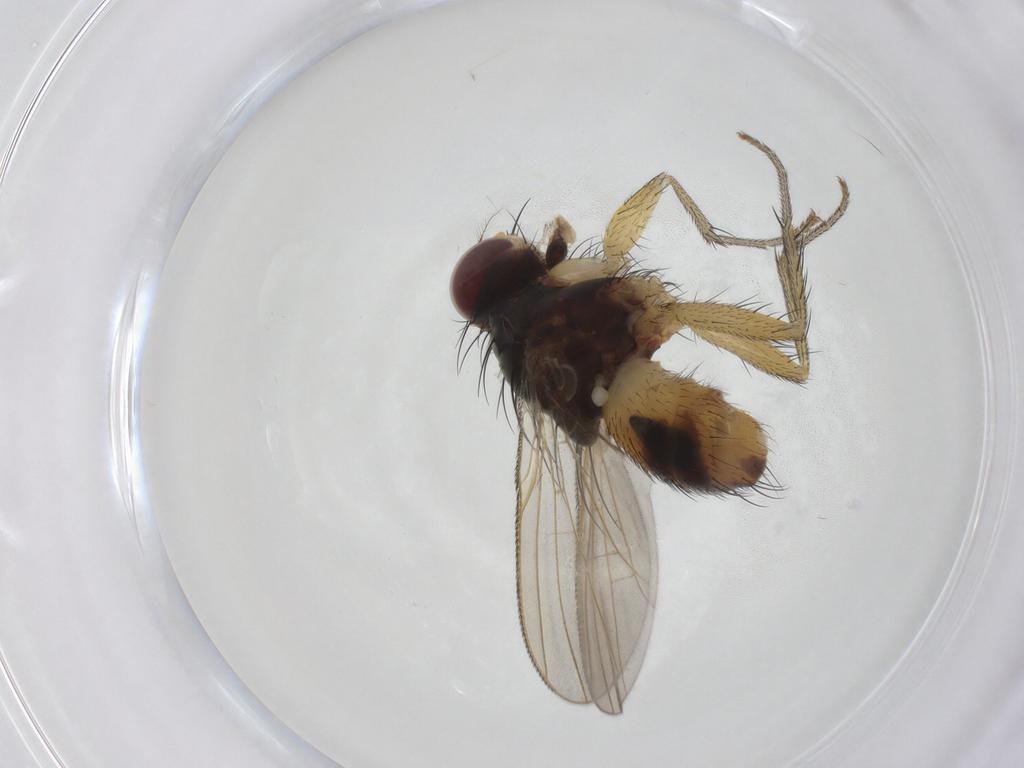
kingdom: Animalia
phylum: Arthropoda
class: Insecta
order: Diptera
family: Muscidae
